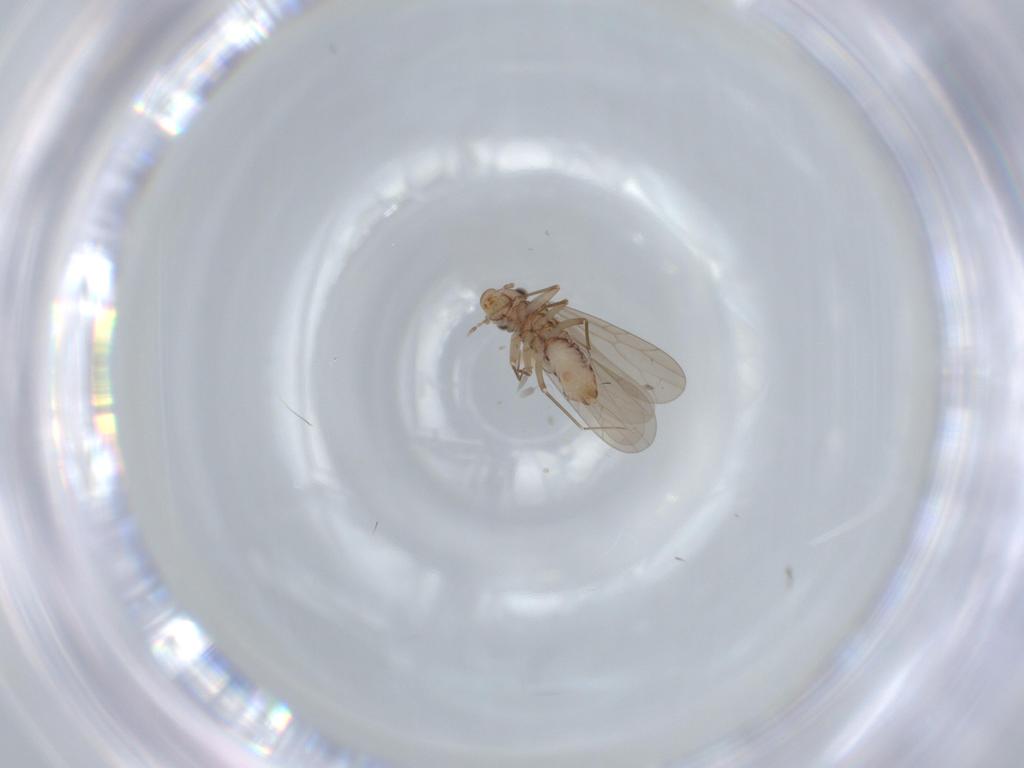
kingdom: Animalia
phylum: Arthropoda
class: Insecta
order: Psocodea
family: Lepidopsocidae
